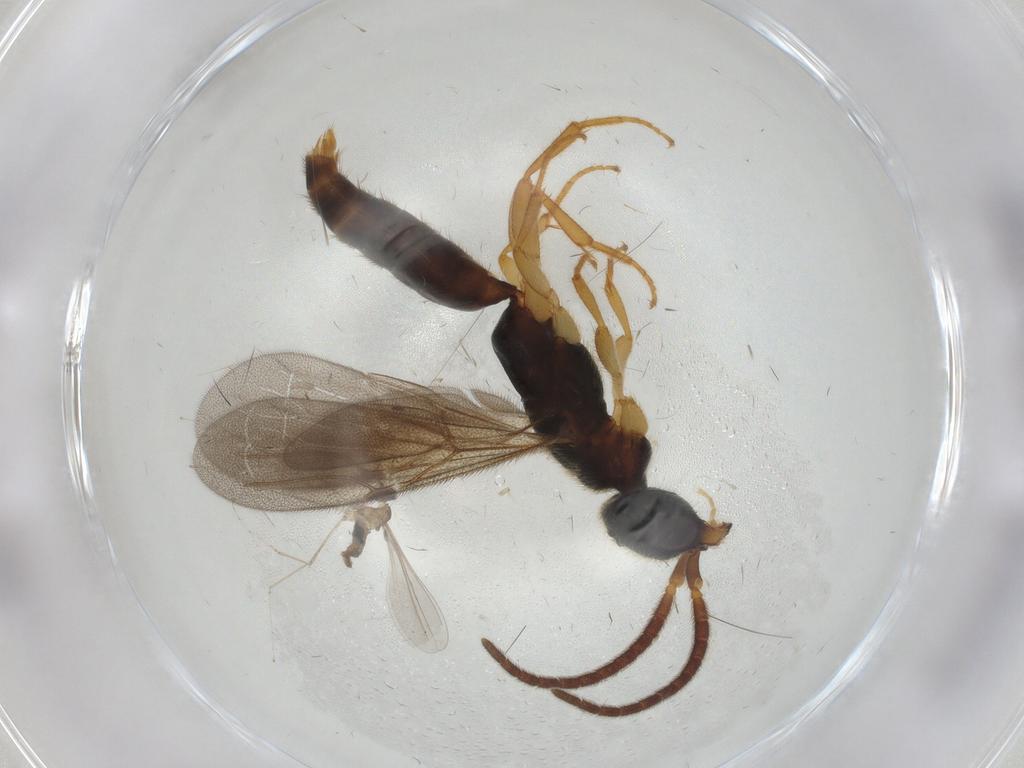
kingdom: Animalia
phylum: Arthropoda
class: Insecta
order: Hymenoptera
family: Bethylidae
